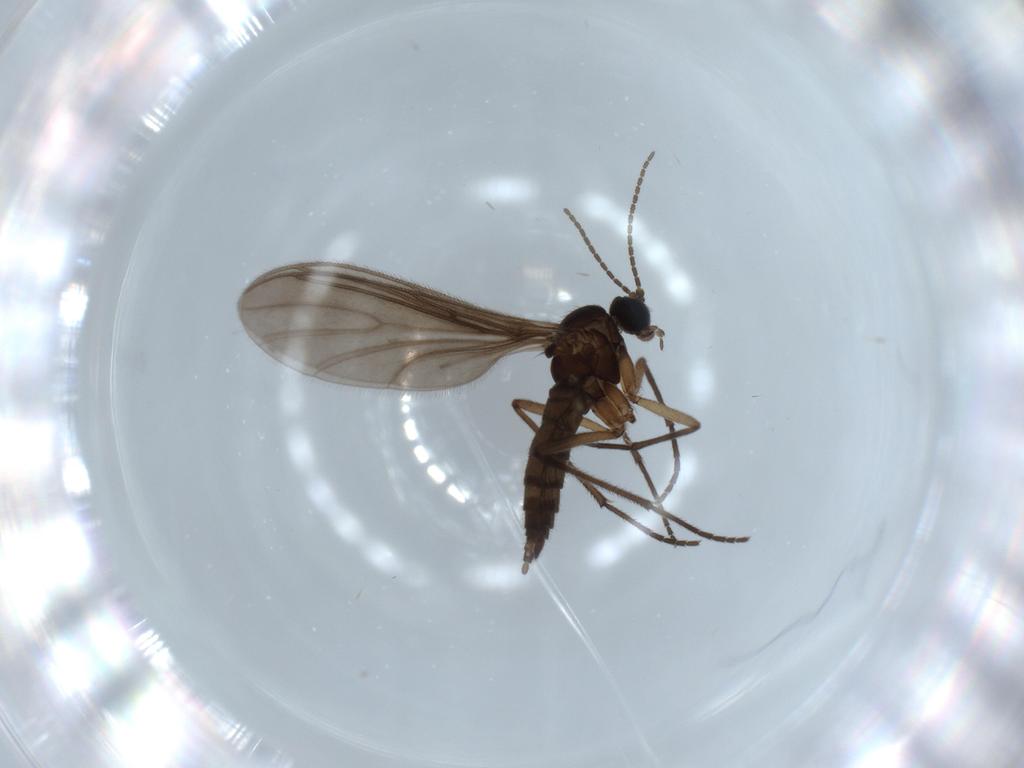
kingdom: Animalia
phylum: Arthropoda
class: Insecta
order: Diptera
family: Sciaridae
